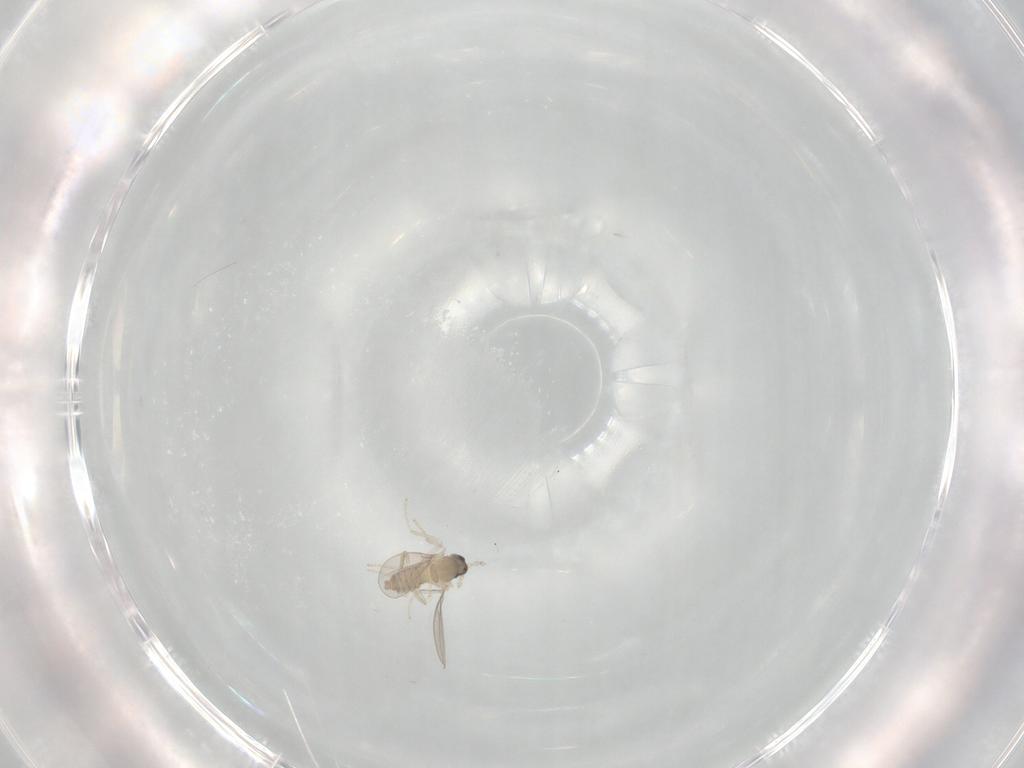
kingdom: Animalia
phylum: Arthropoda
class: Insecta
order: Diptera
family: Cecidomyiidae
